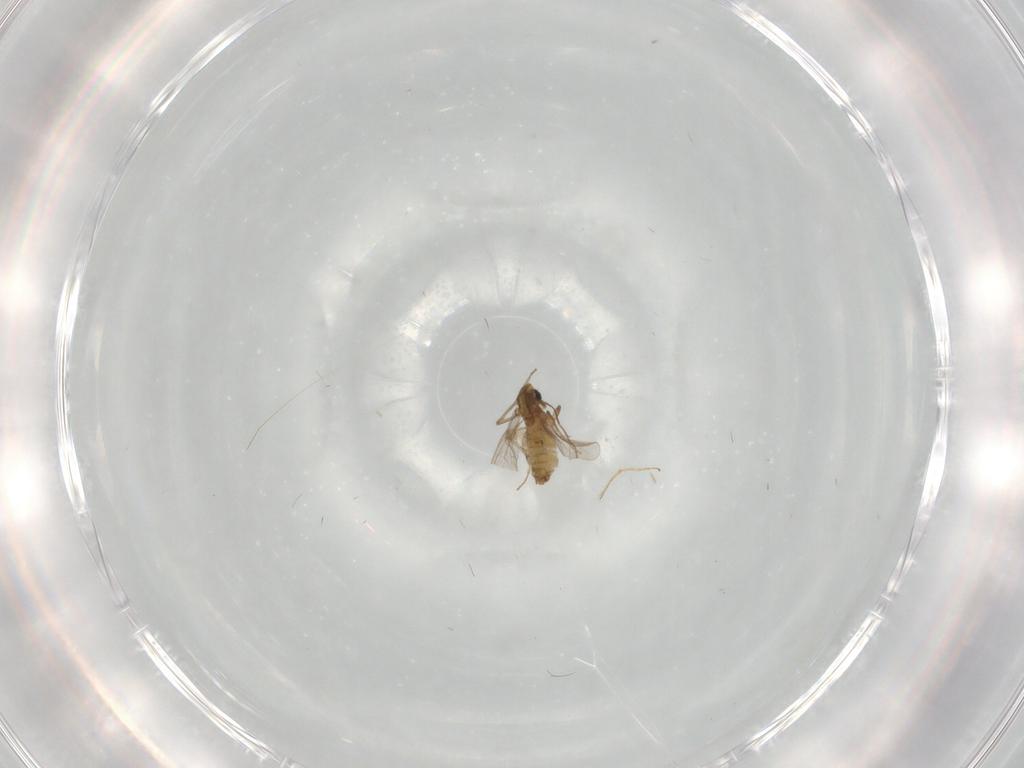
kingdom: Animalia
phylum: Arthropoda
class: Insecta
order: Diptera
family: Chironomidae
